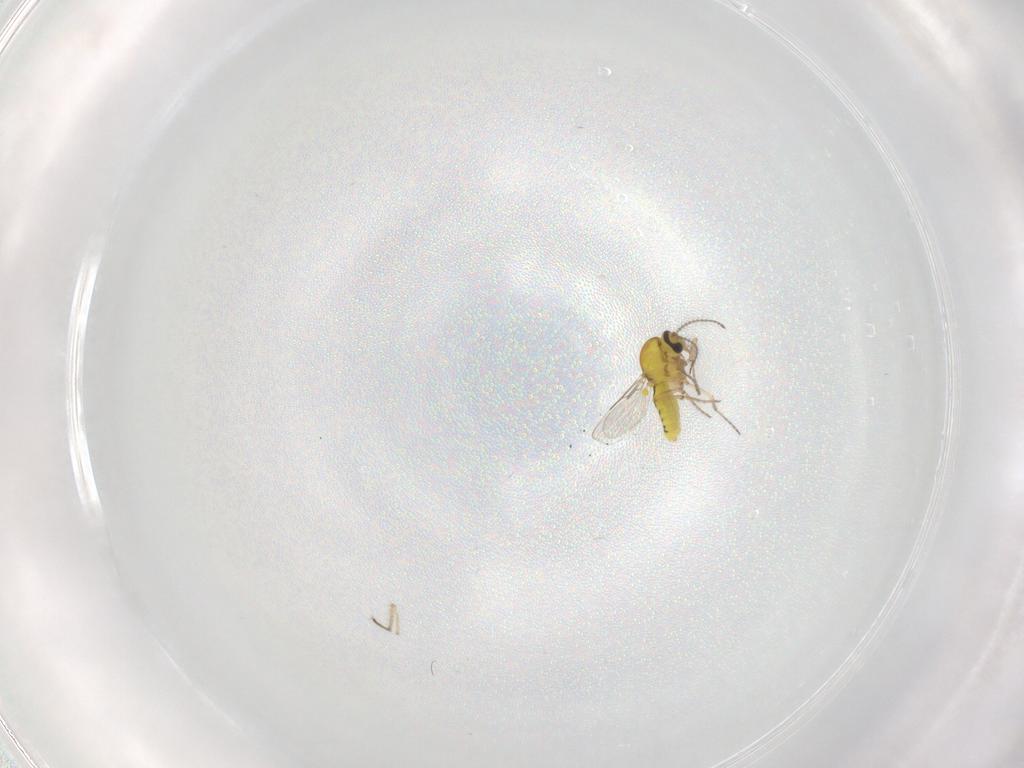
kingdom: Animalia
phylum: Arthropoda
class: Insecta
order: Diptera
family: Ceratopogonidae
